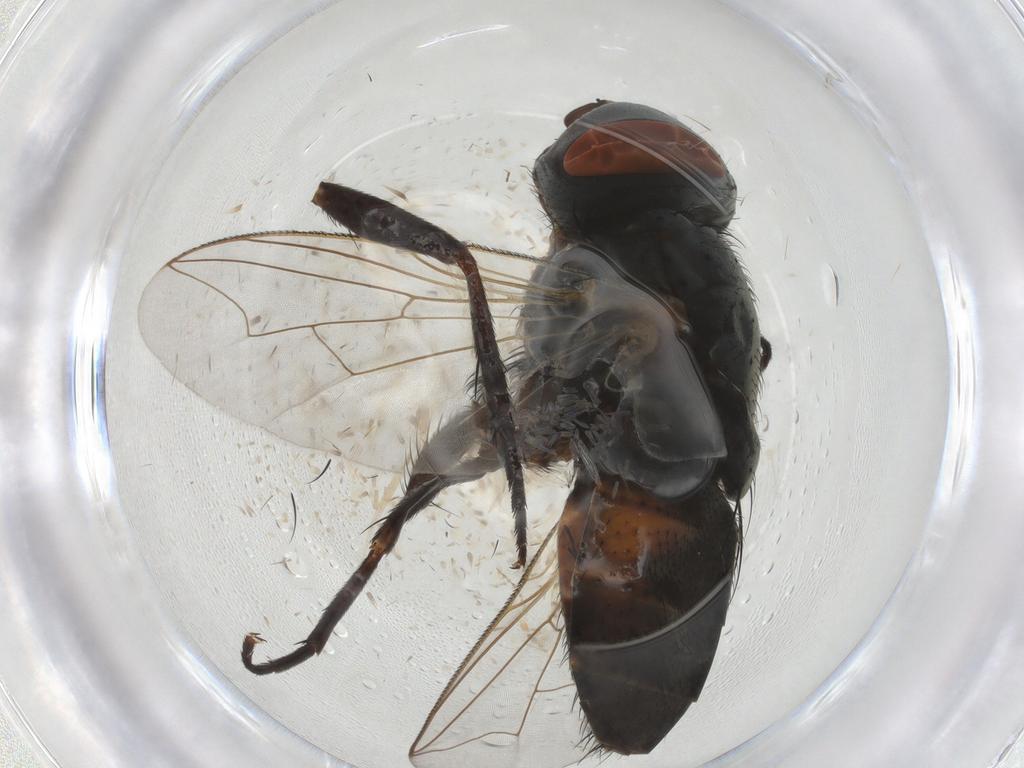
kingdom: Animalia
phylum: Arthropoda
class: Insecta
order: Diptera
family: Sarcophagidae
